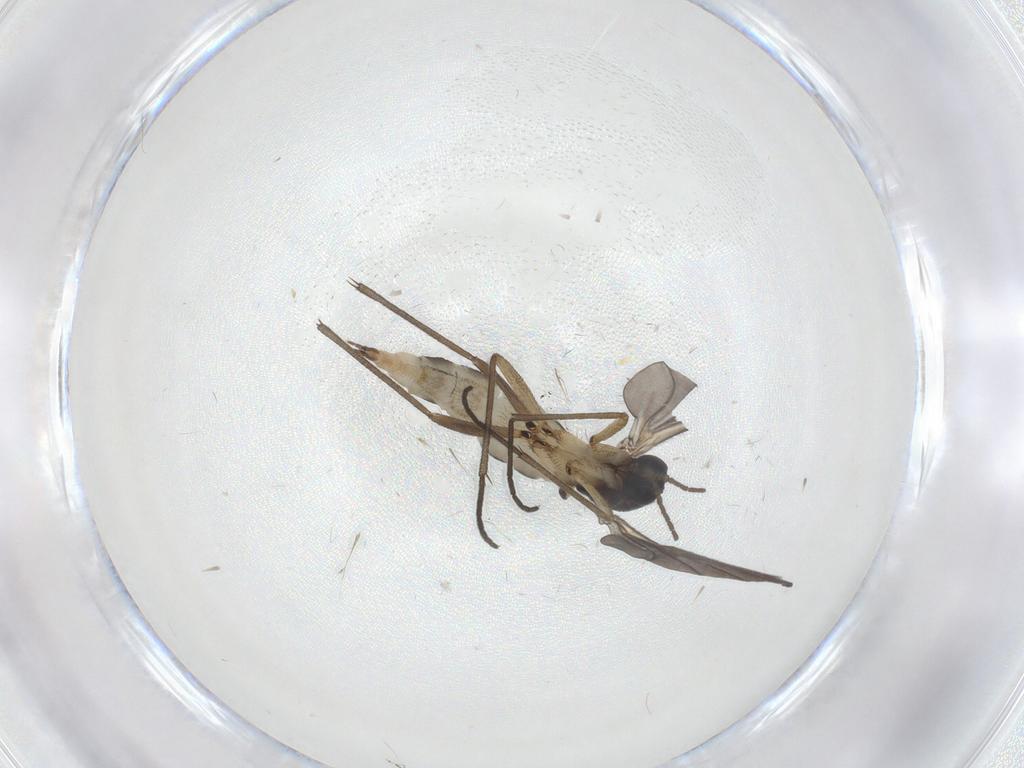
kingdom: Animalia
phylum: Arthropoda
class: Insecta
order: Diptera
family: Sciaridae
